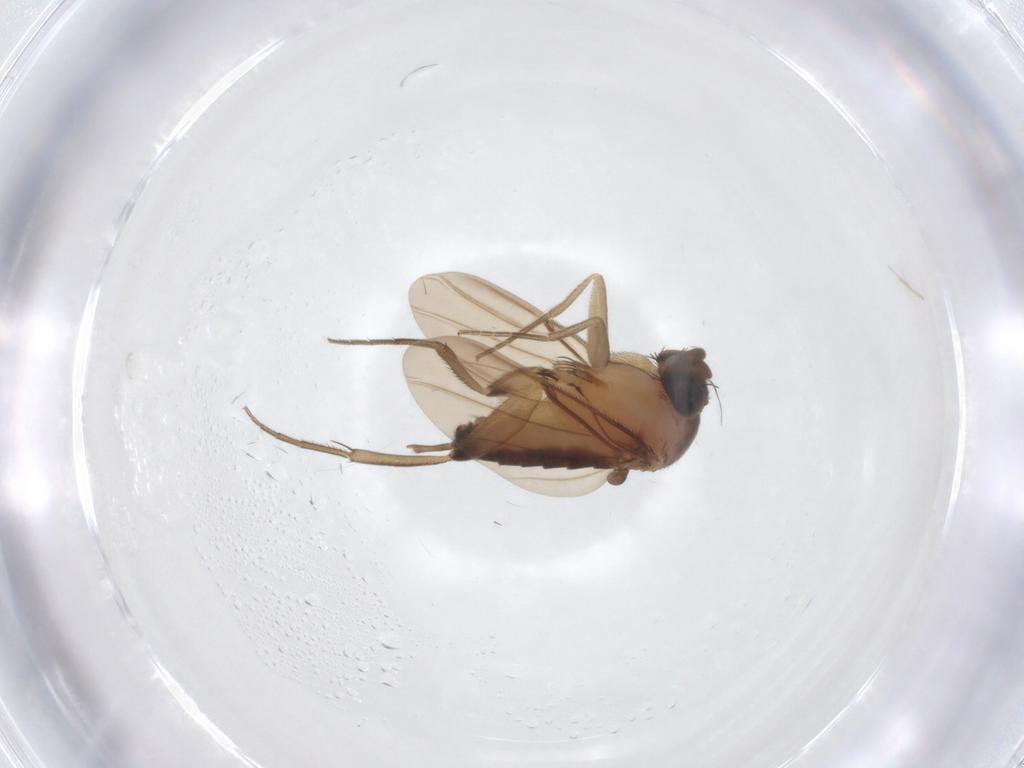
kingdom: Animalia
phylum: Arthropoda
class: Insecta
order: Diptera
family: Phoridae
